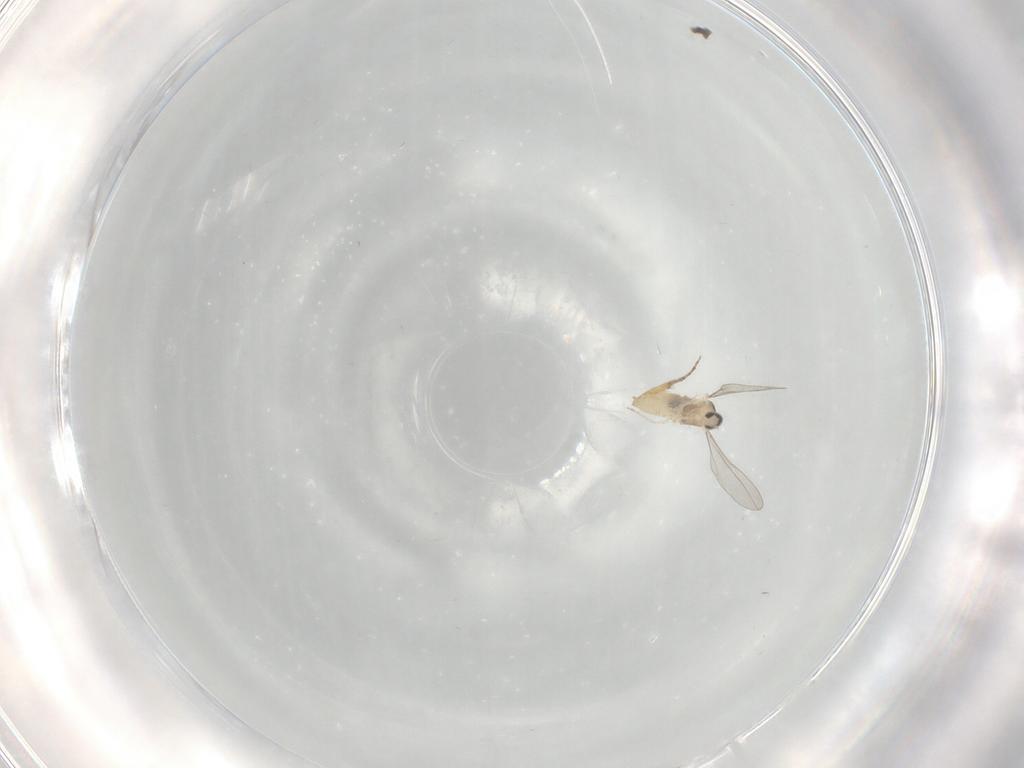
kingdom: Animalia
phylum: Arthropoda
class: Insecta
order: Diptera
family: Cecidomyiidae
